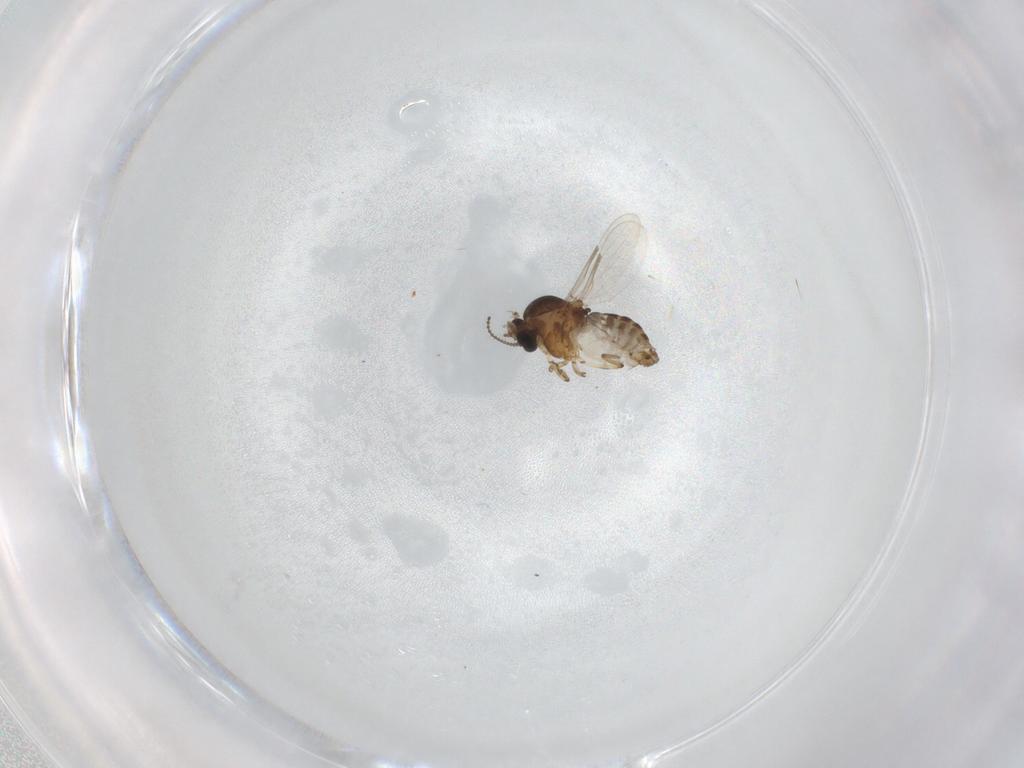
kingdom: Animalia
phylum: Arthropoda
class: Insecta
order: Diptera
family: Ceratopogonidae
